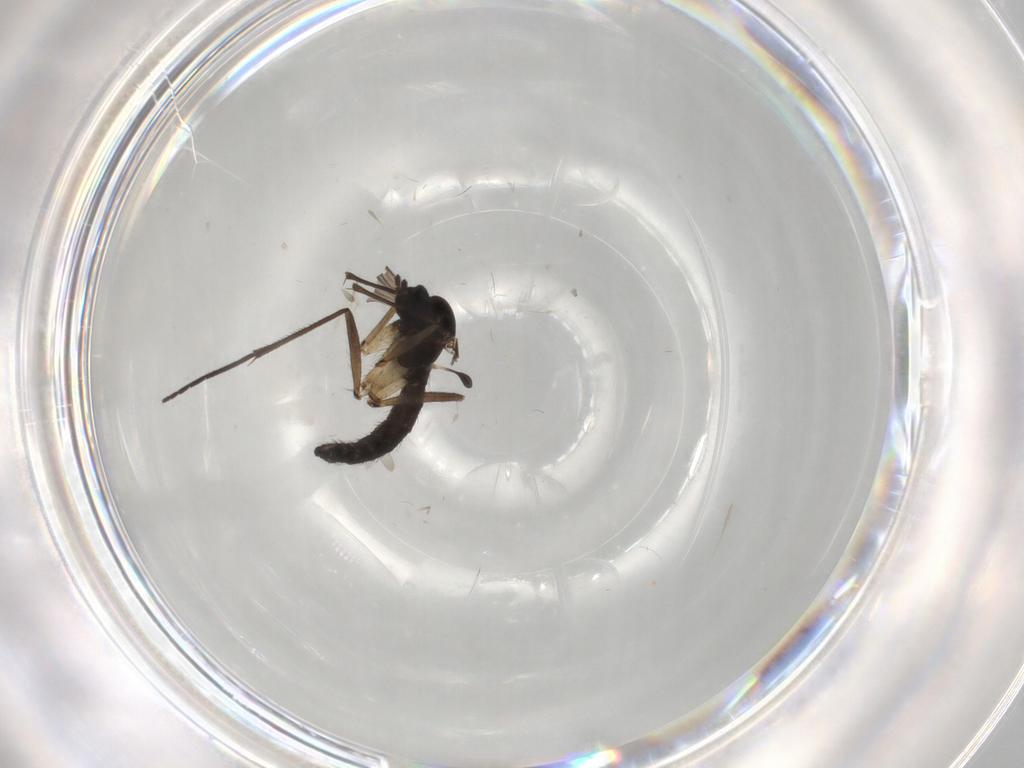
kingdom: Animalia
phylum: Arthropoda
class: Insecta
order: Diptera
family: Sciaridae
